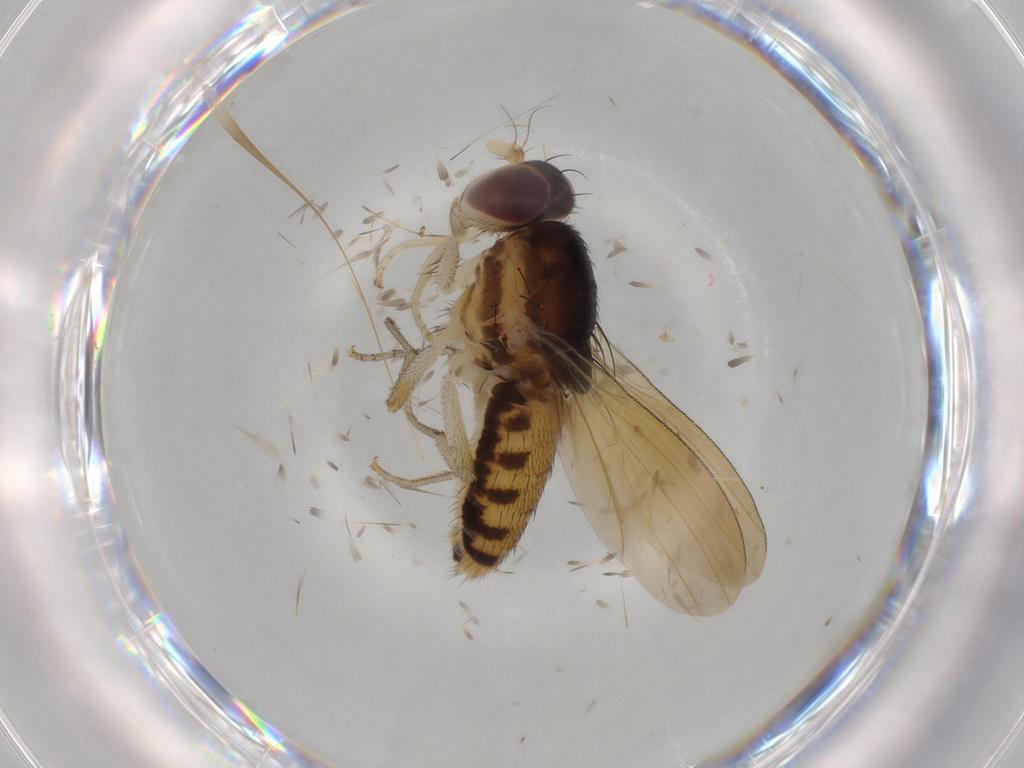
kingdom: Animalia
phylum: Arthropoda
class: Insecta
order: Diptera
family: Cecidomyiidae
